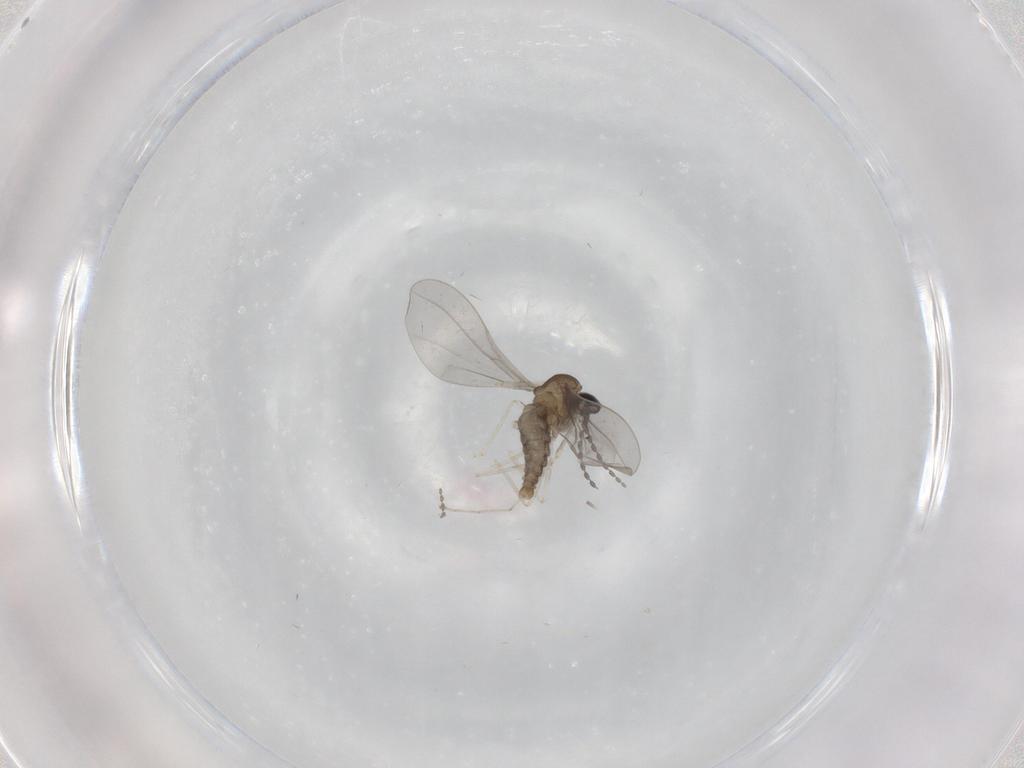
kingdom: Animalia
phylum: Arthropoda
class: Insecta
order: Diptera
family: Cecidomyiidae
